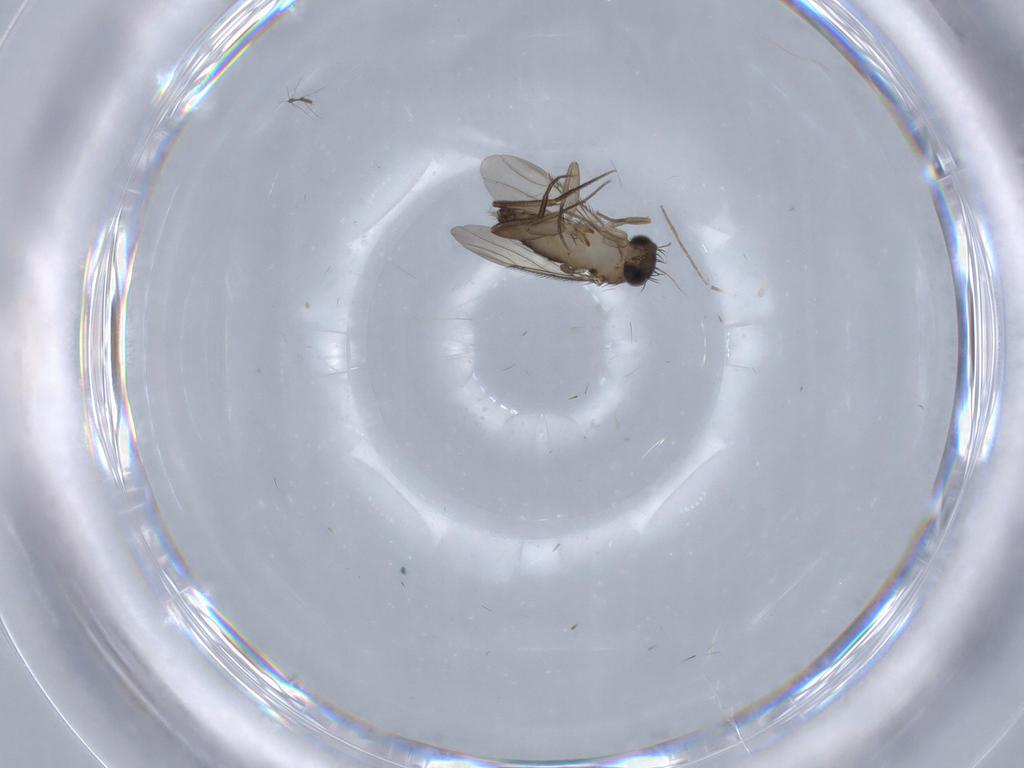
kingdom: Animalia
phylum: Arthropoda
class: Insecta
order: Diptera
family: Phoridae
